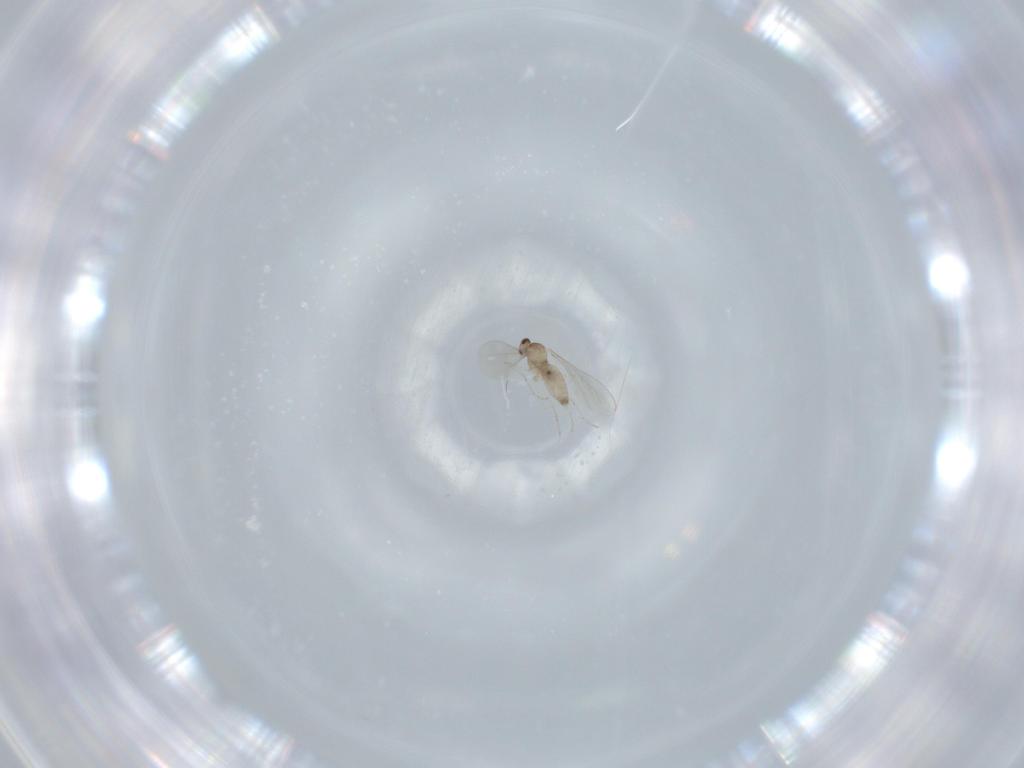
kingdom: Animalia
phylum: Arthropoda
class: Insecta
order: Diptera
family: Cecidomyiidae
